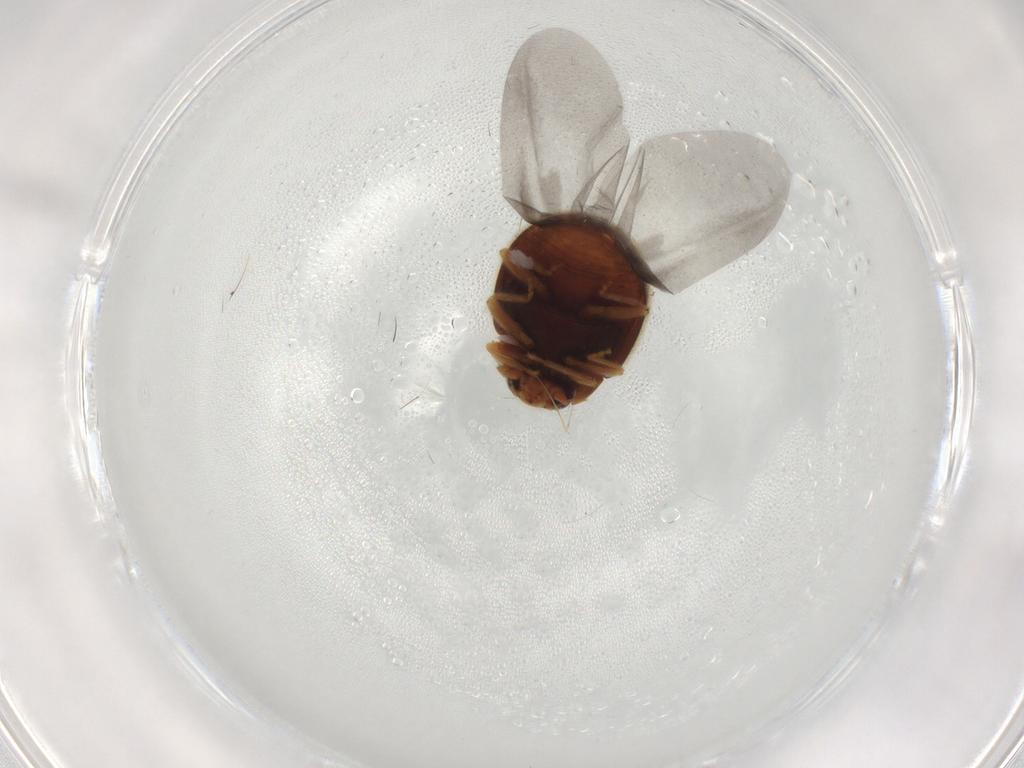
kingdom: Animalia
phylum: Arthropoda
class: Insecta
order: Coleoptera
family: Coccinellidae
